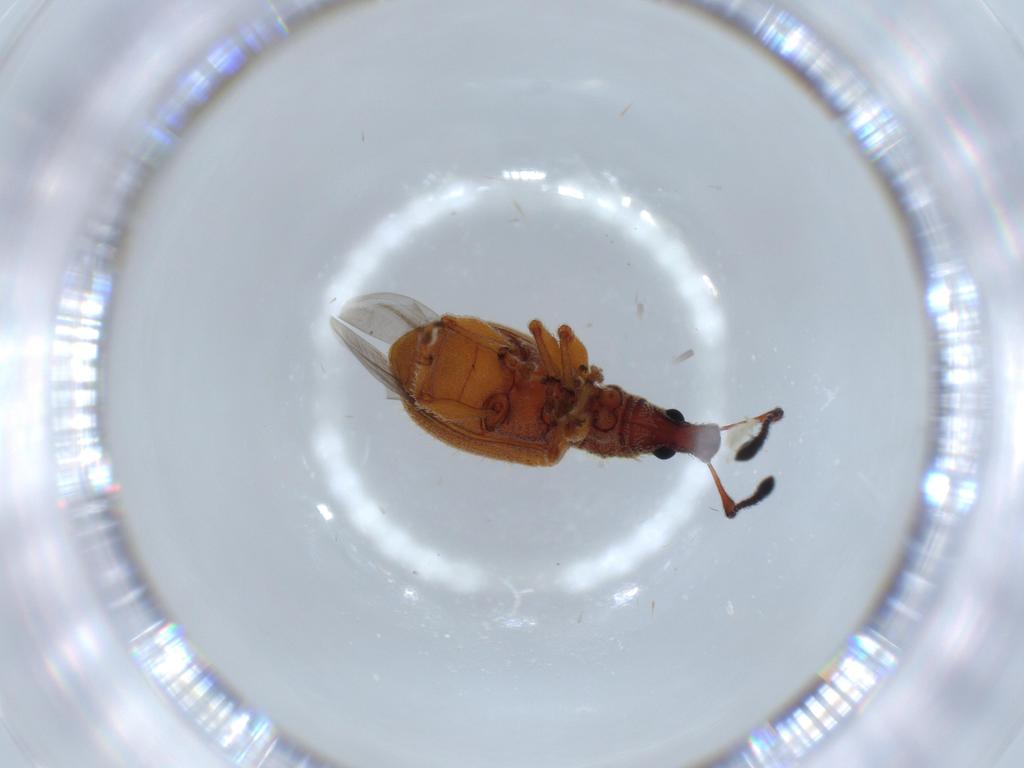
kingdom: Animalia
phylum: Arthropoda
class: Insecta
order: Coleoptera
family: Curculionidae
